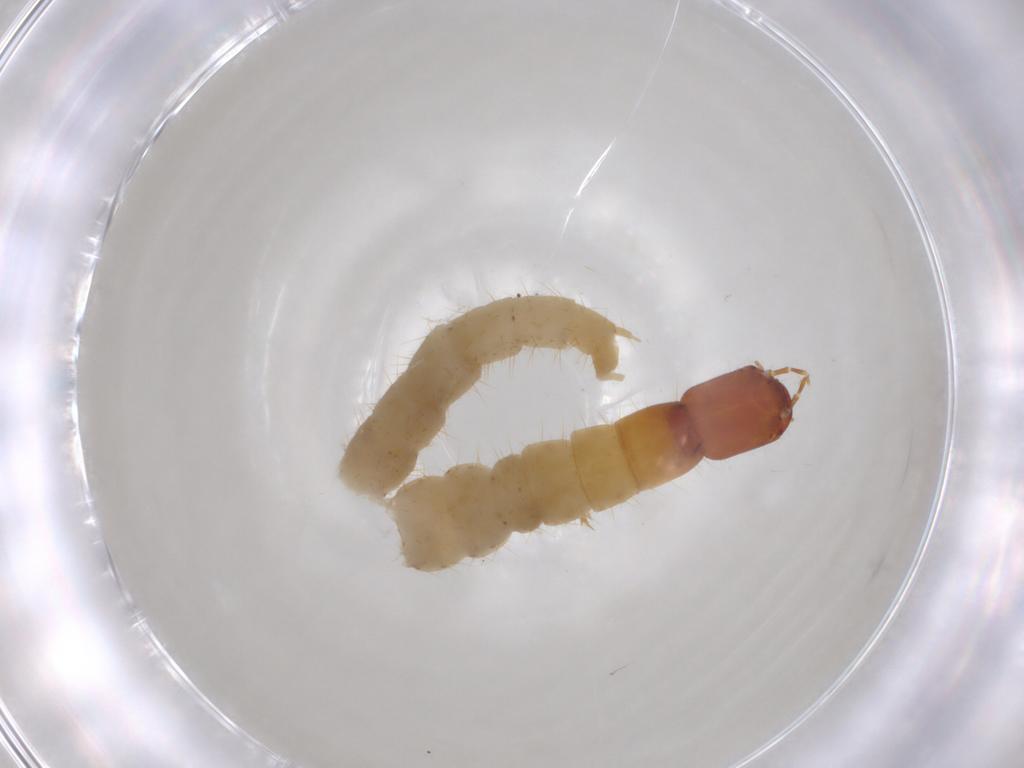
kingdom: Animalia
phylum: Arthropoda
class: Insecta
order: Coleoptera
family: Staphylinidae
